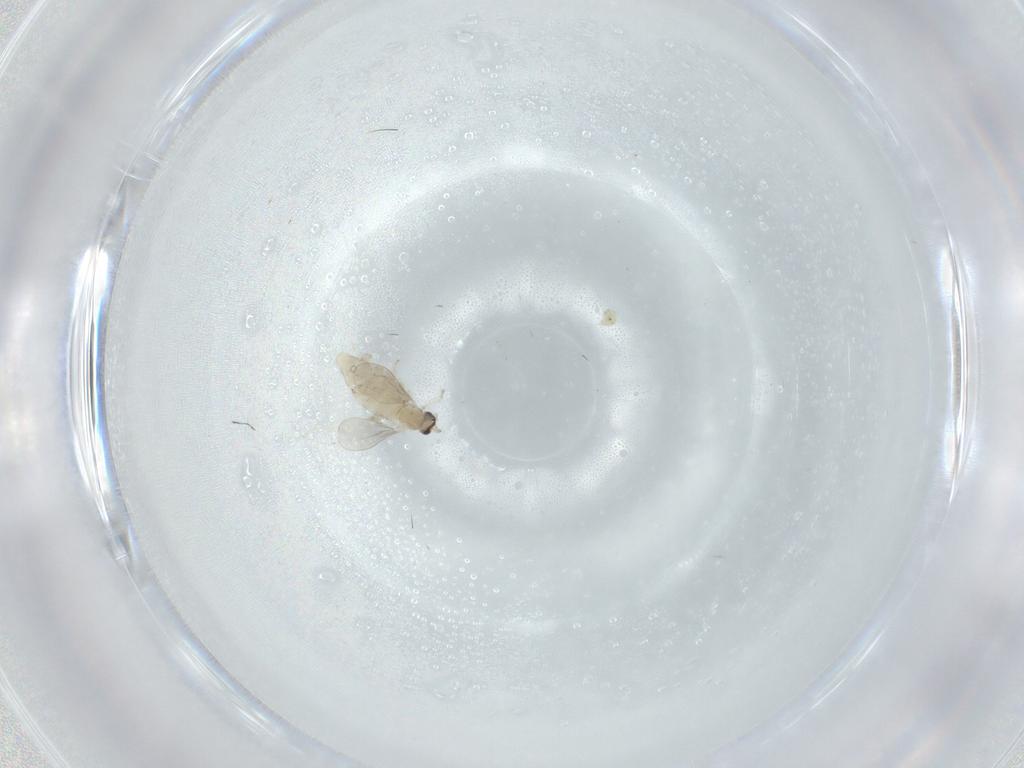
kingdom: Animalia
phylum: Arthropoda
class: Insecta
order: Diptera
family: Cecidomyiidae
